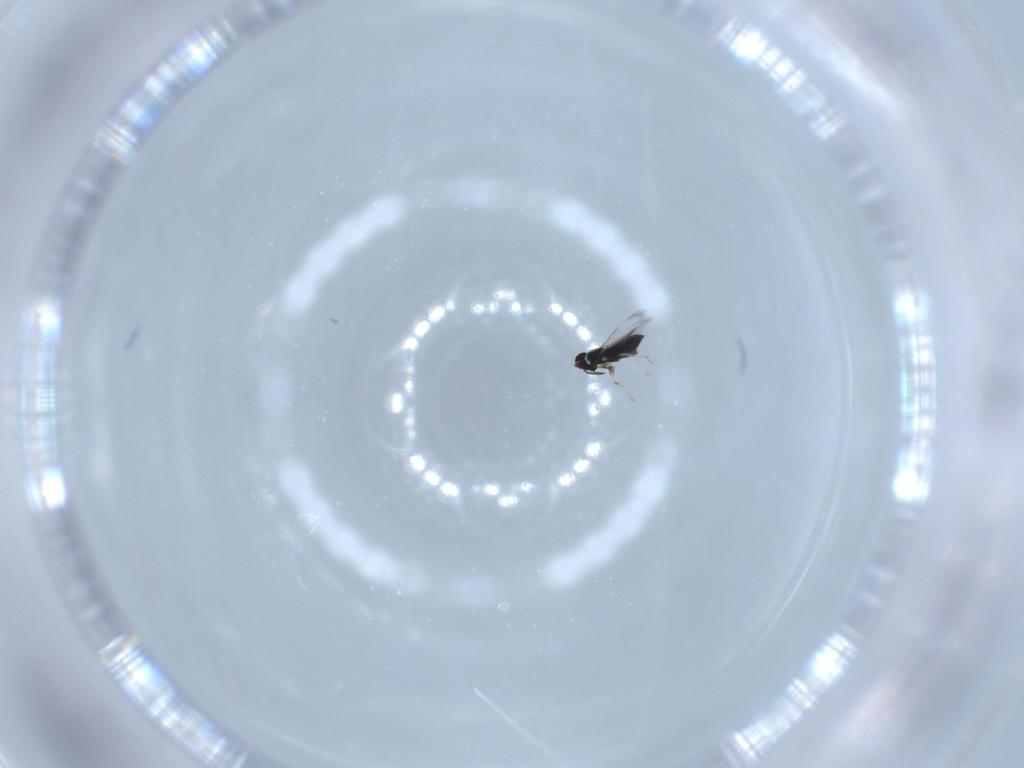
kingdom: Animalia
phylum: Arthropoda
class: Insecta
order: Hymenoptera
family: Signiphoridae
